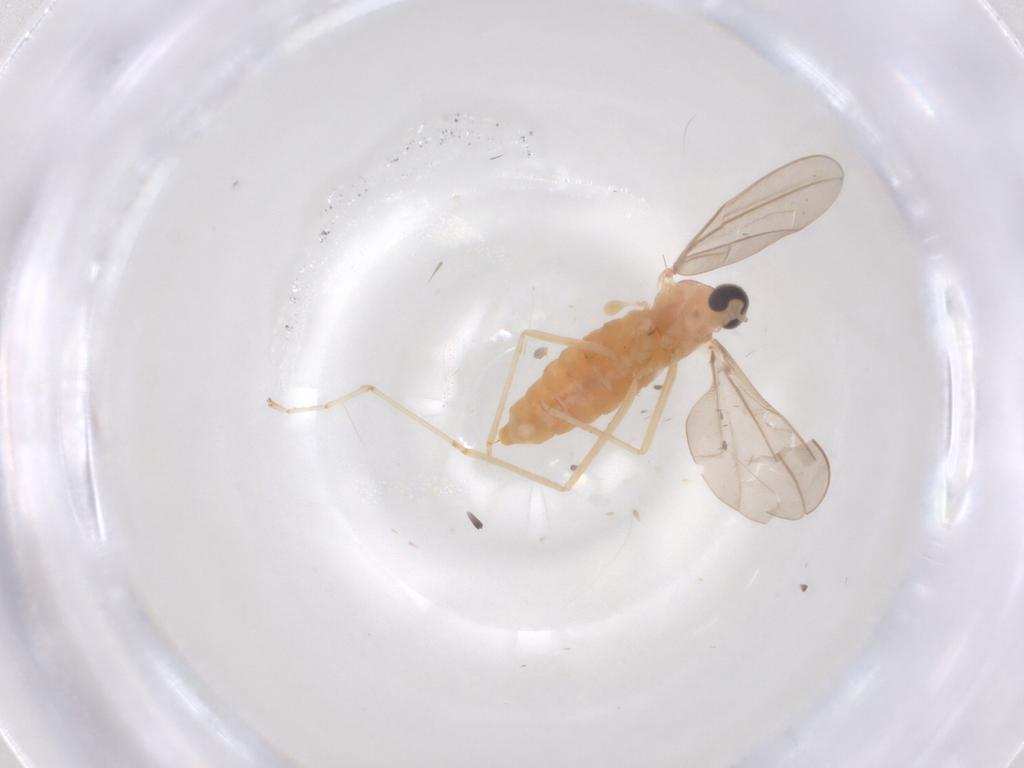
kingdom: Animalia
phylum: Arthropoda
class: Insecta
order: Diptera
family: Cecidomyiidae
